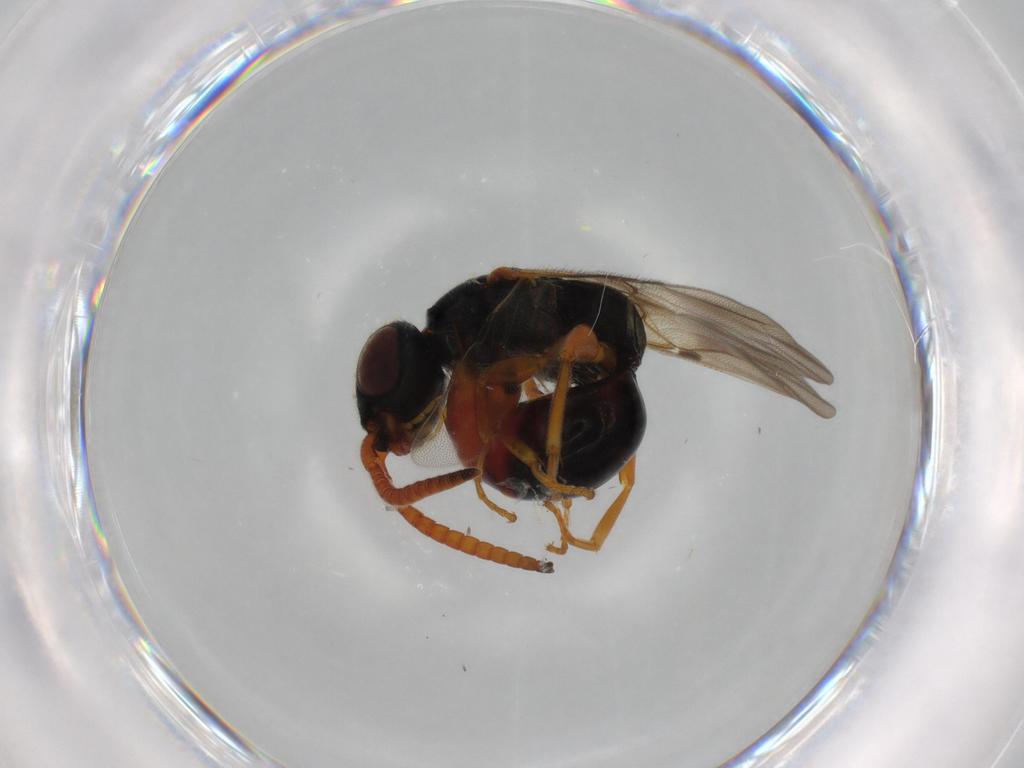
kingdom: Animalia
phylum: Arthropoda
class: Insecta
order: Hymenoptera
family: Bethylidae
